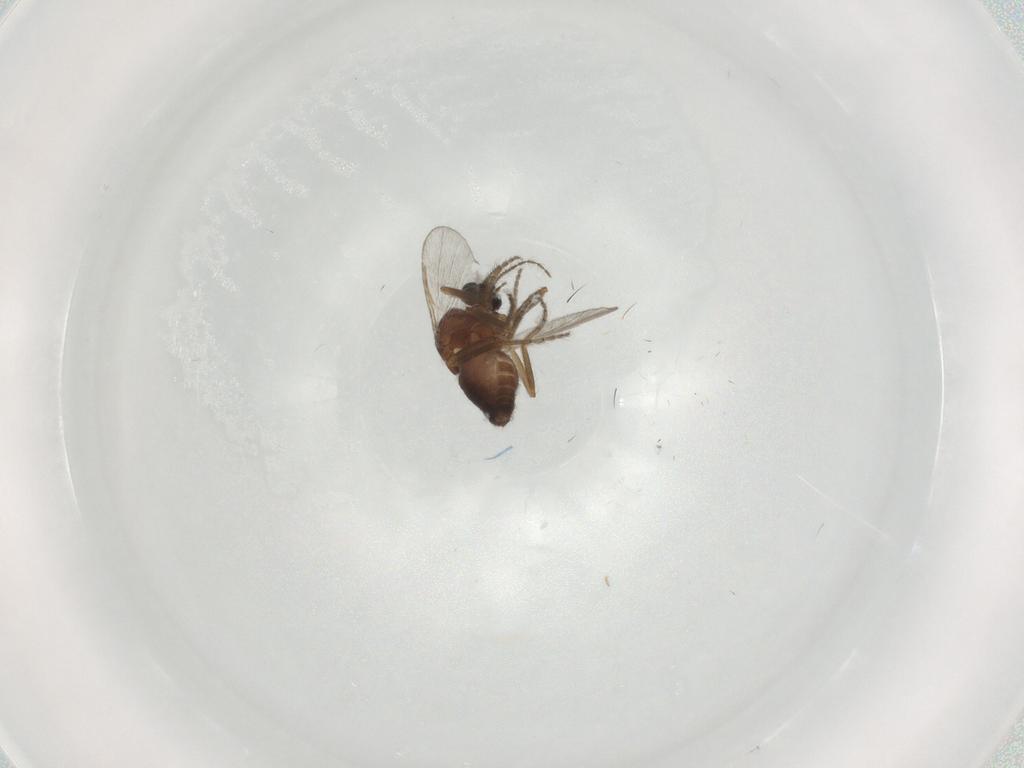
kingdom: Animalia
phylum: Arthropoda
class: Insecta
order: Diptera
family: Ceratopogonidae
